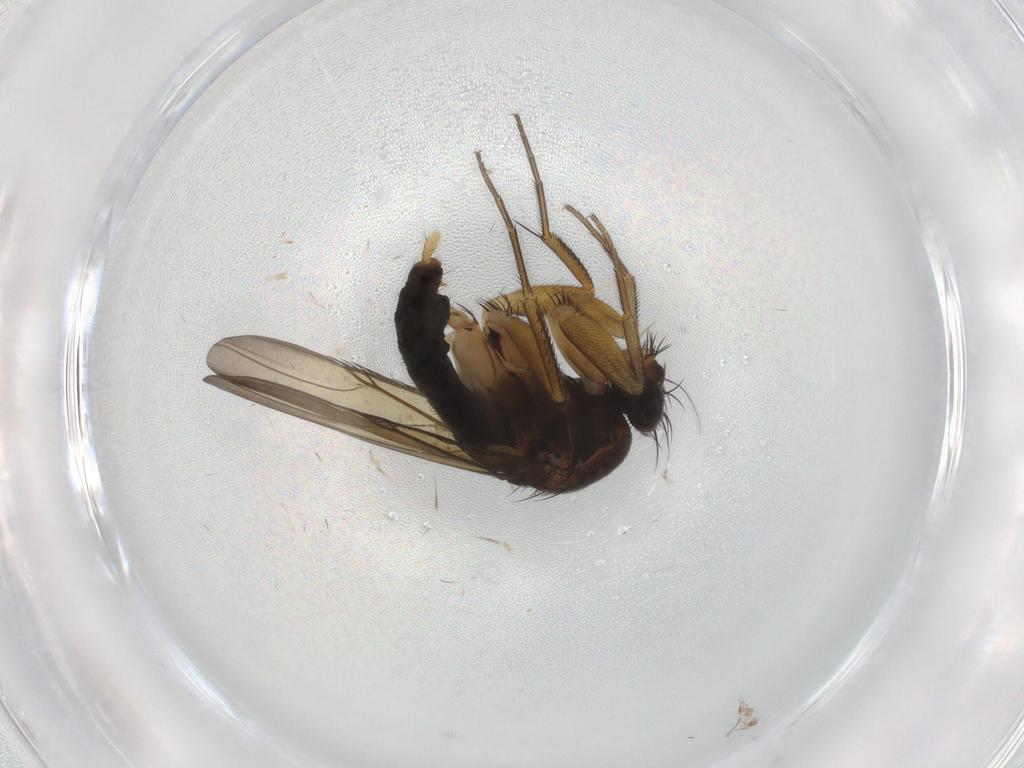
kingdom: Animalia
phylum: Arthropoda
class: Insecta
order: Diptera
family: Phoridae
